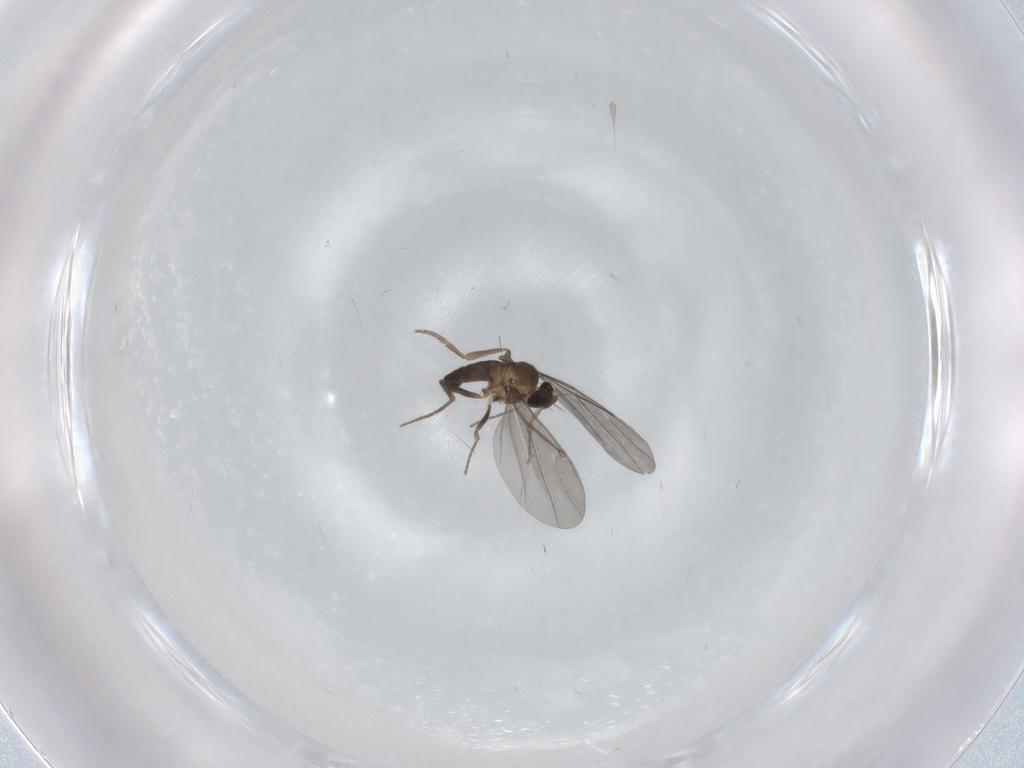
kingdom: Animalia
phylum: Arthropoda
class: Insecta
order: Diptera
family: Phoridae
